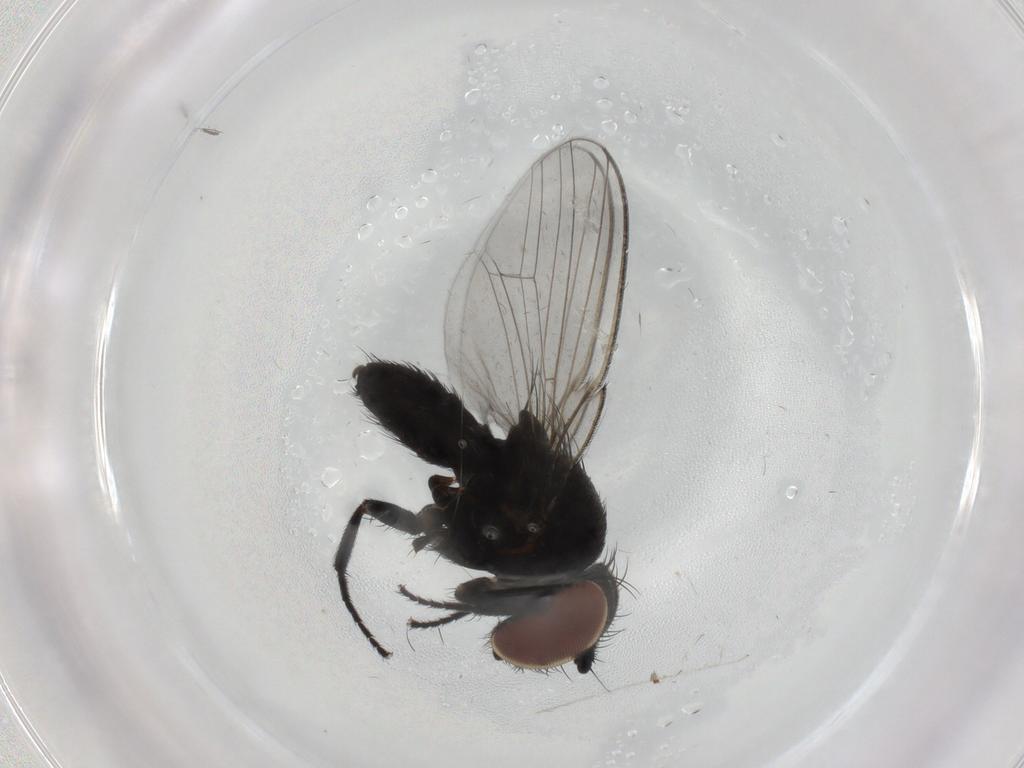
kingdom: Animalia
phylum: Arthropoda
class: Insecta
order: Diptera
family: Milichiidae
